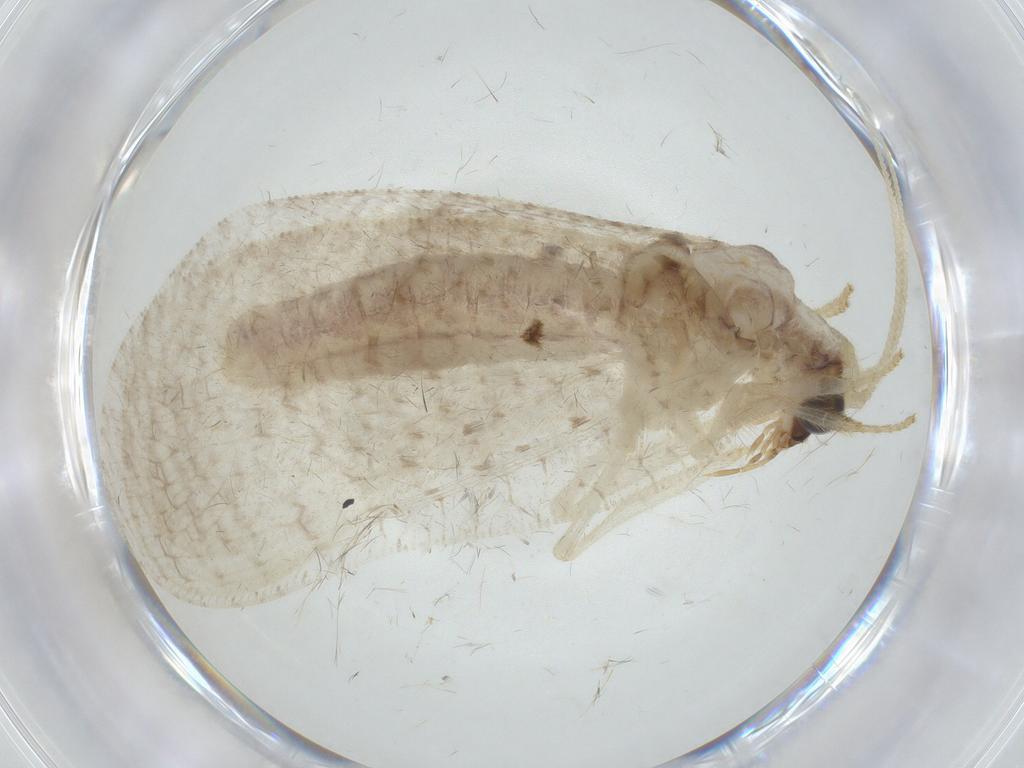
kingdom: Animalia
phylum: Arthropoda
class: Insecta
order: Neuroptera
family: Hemerobiidae
